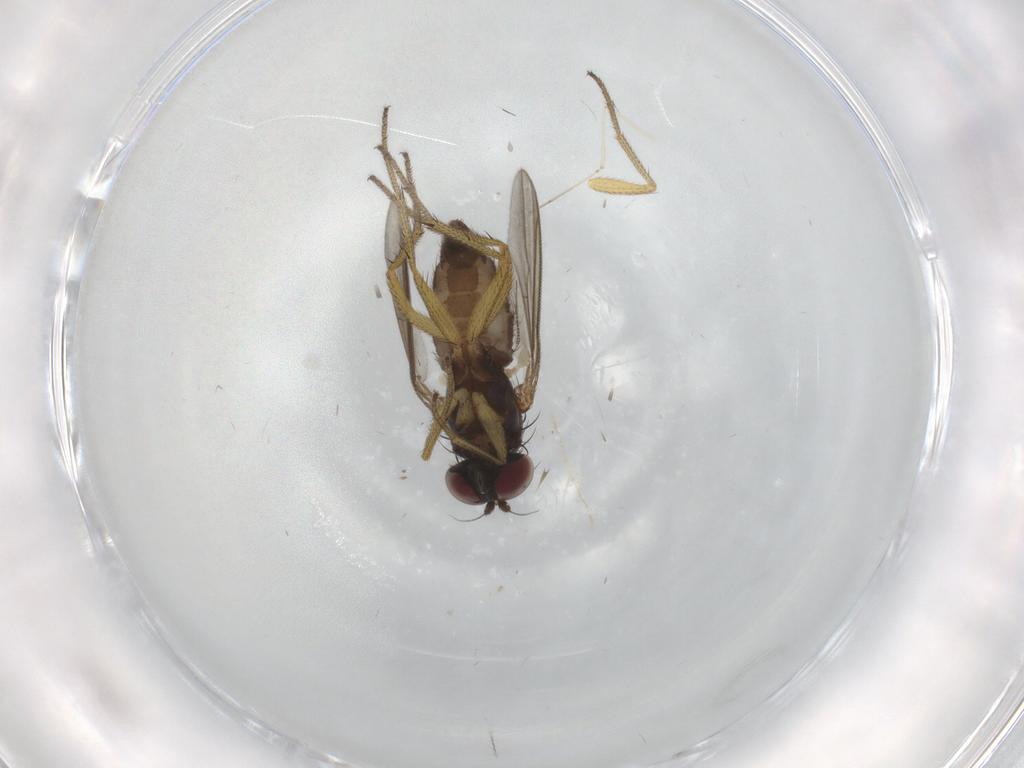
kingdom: Animalia
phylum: Arthropoda
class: Insecta
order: Diptera
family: Dolichopodidae
